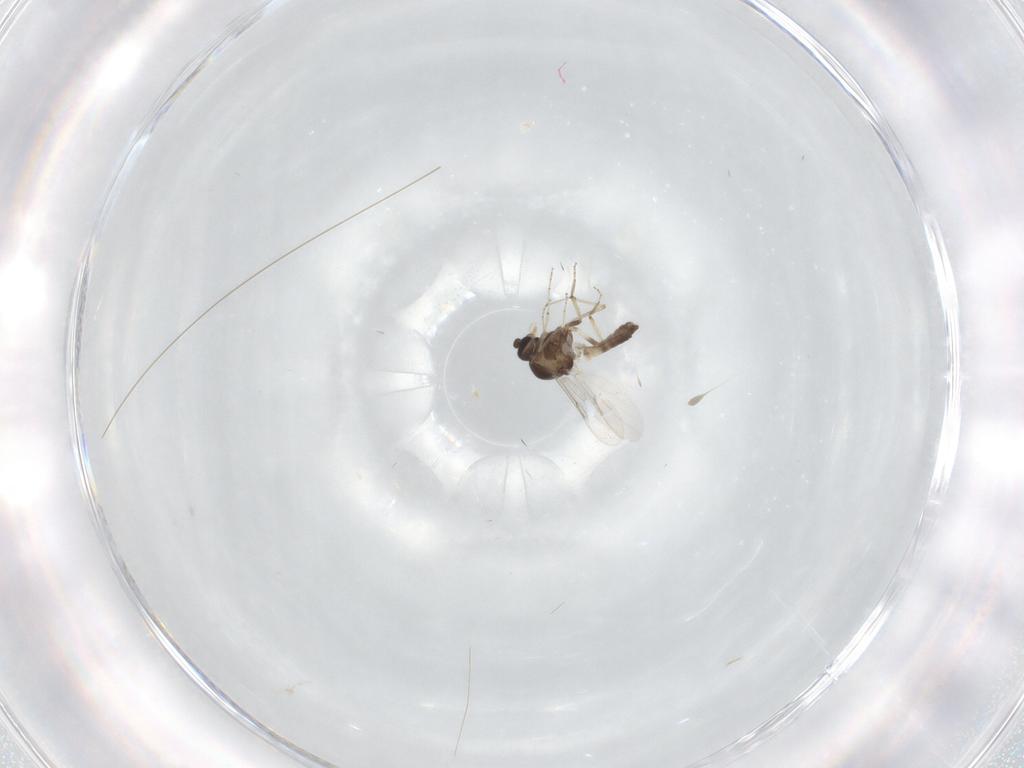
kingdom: Animalia
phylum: Arthropoda
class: Insecta
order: Diptera
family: Ceratopogonidae
